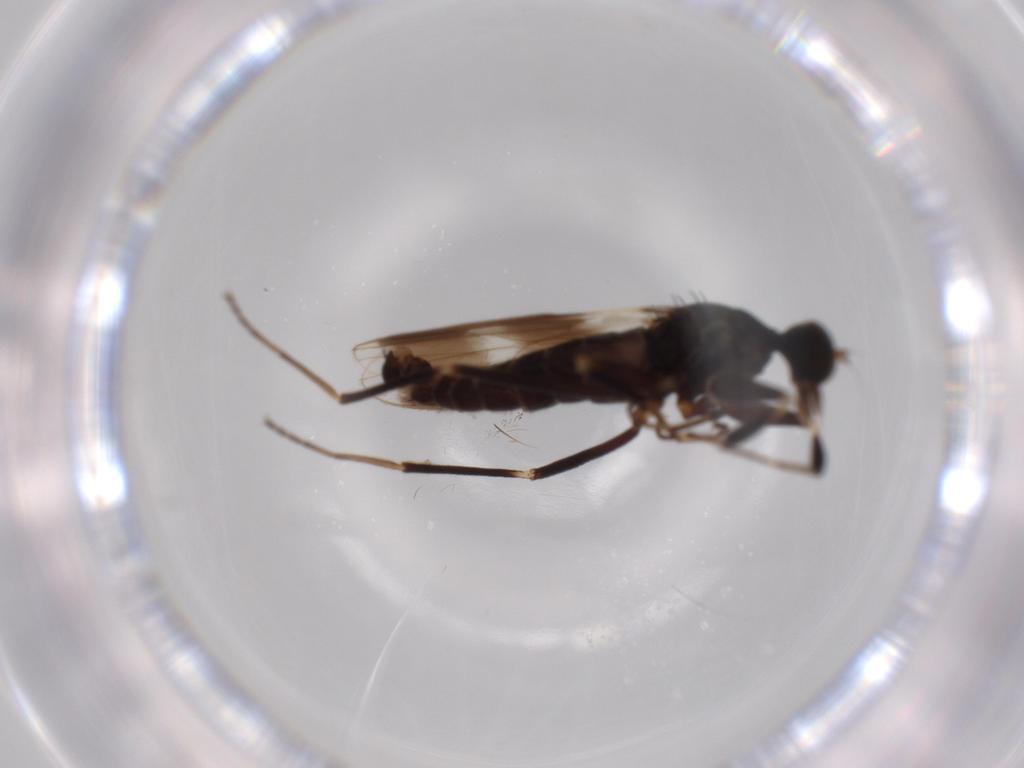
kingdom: Animalia
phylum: Arthropoda
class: Insecta
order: Diptera
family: Hybotidae
